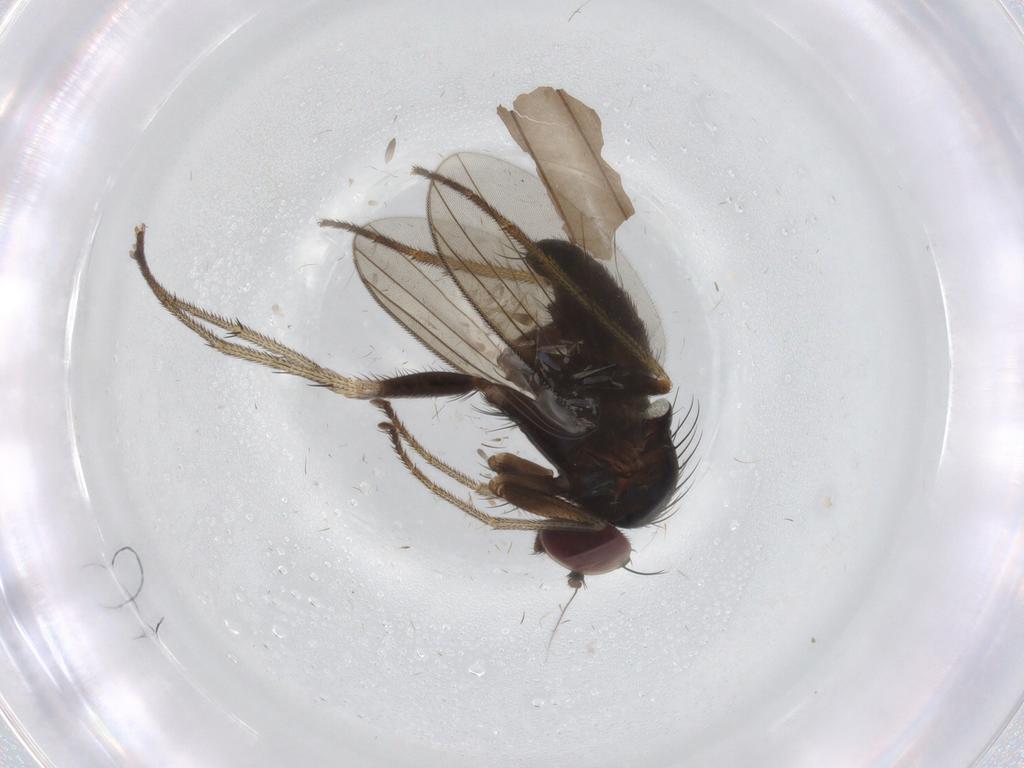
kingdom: Animalia
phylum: Arthropoda
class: Insecta
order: Diptera
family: Dolichopodidae
